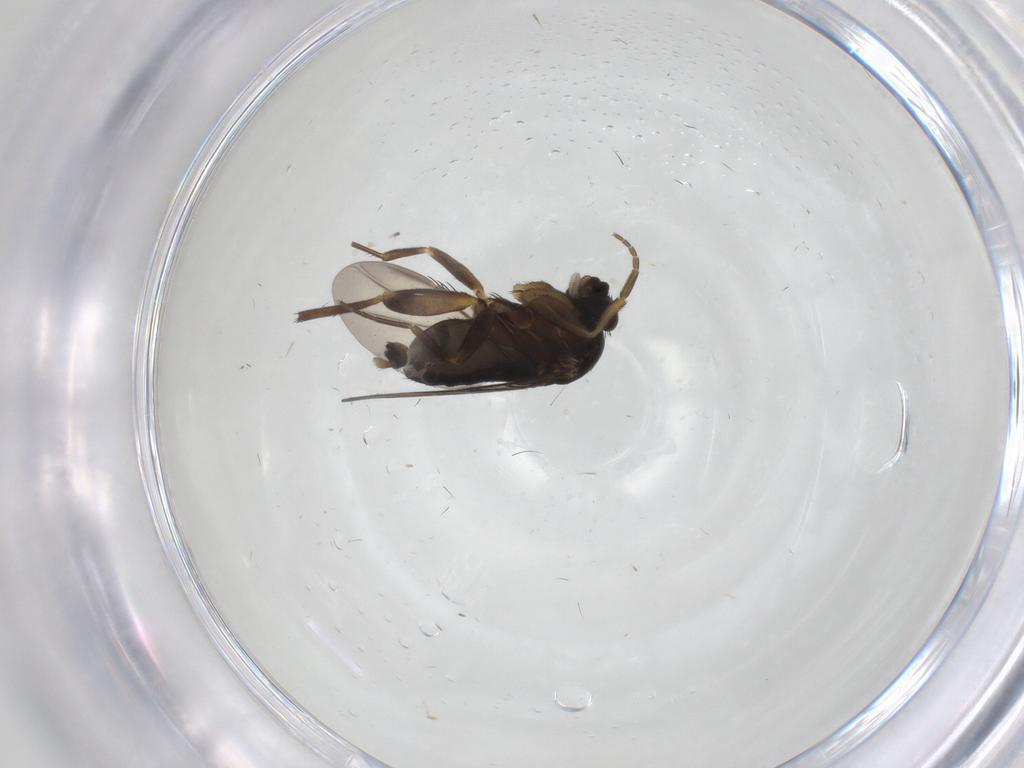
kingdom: Animalia
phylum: Arthropoda
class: Insecta
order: Diptera
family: Phoridae
